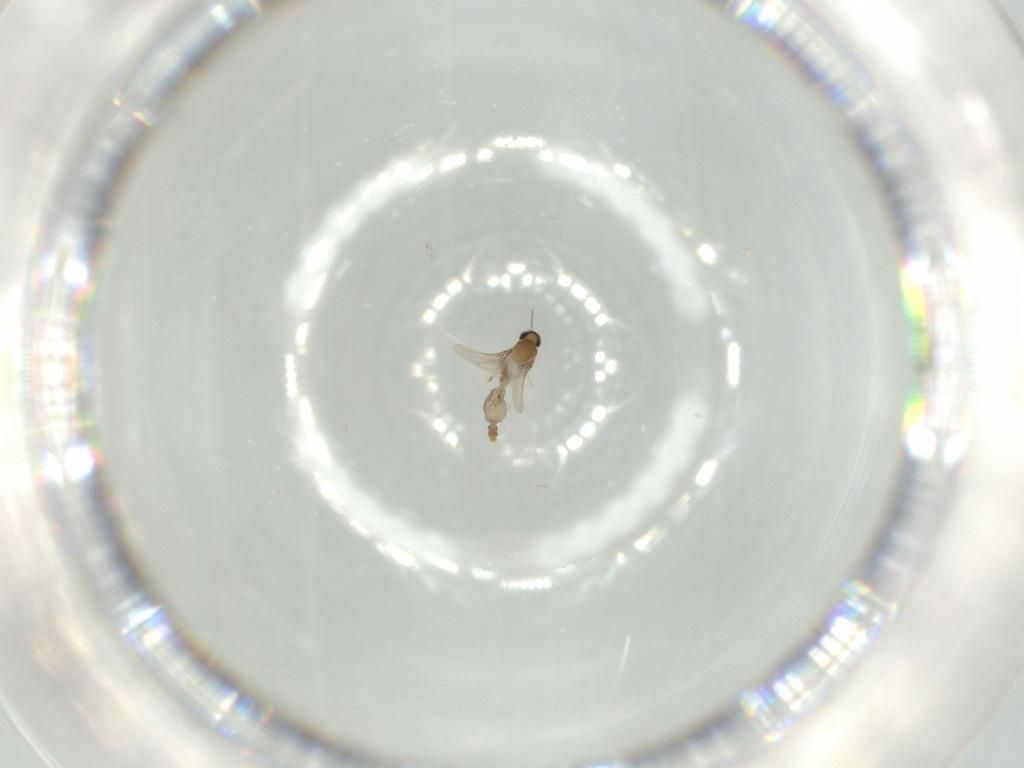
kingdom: Animalia
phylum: Arthropoda
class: Insecta
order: Diptera
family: Cecidomyiidae
